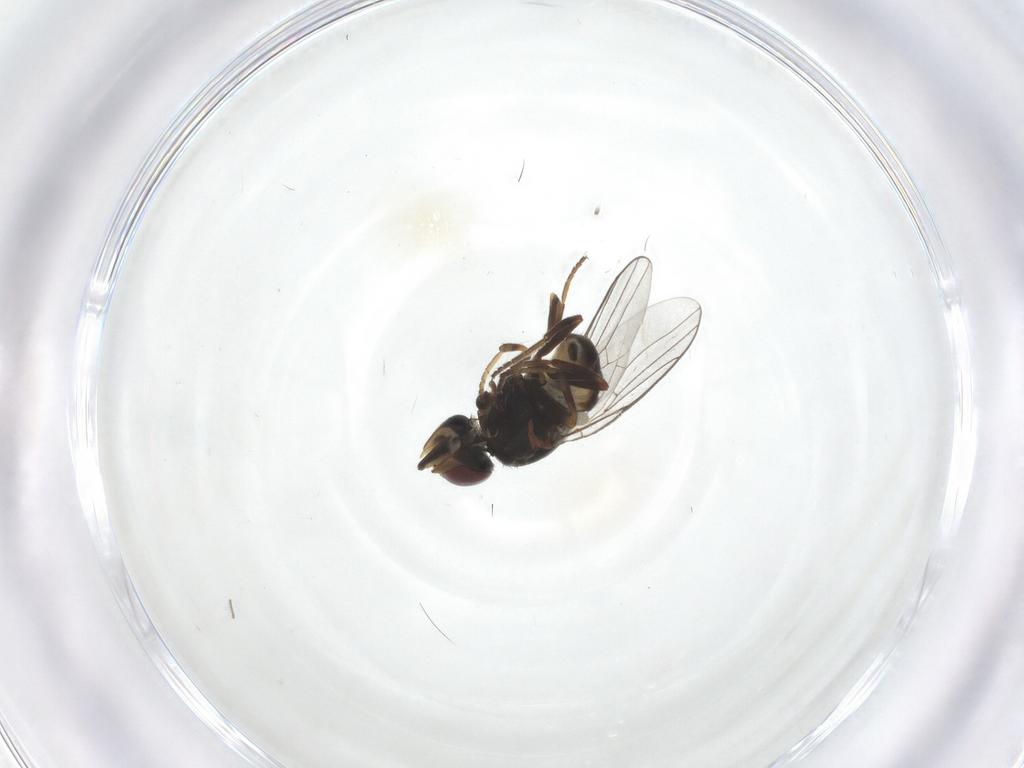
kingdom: Animalia
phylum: Arthropoda
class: Insecta
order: Diptera
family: Chloropidae
